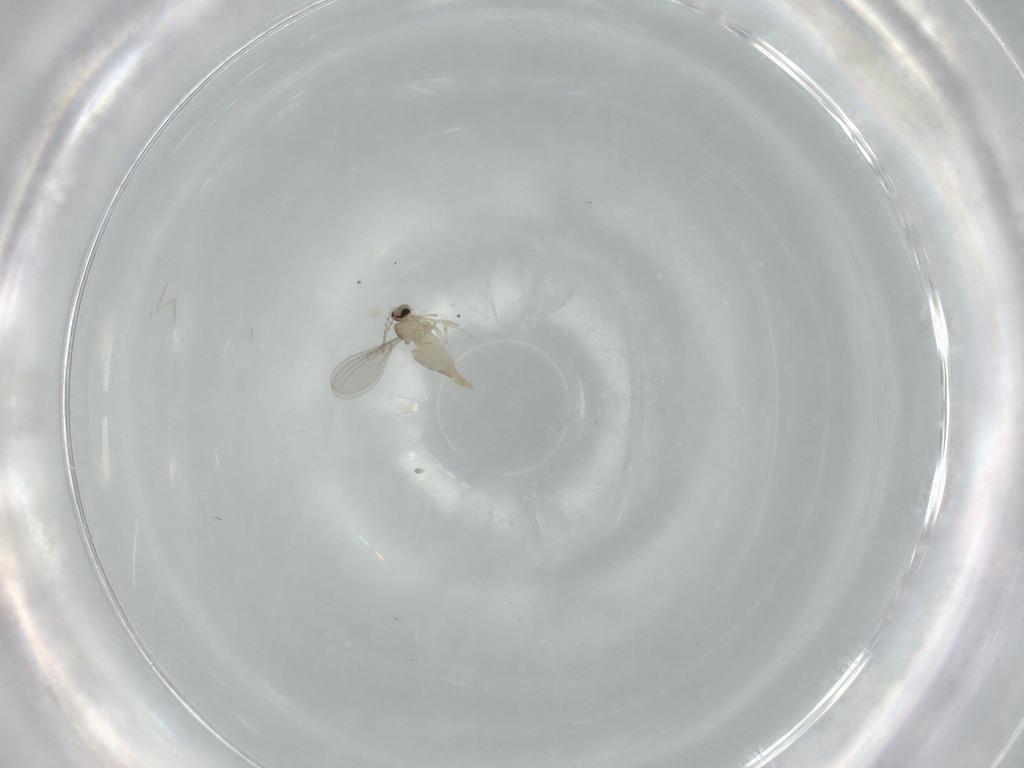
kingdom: Animalia
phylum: Arthropoda
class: Insecta
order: Diptera
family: Cecidomyiidae
